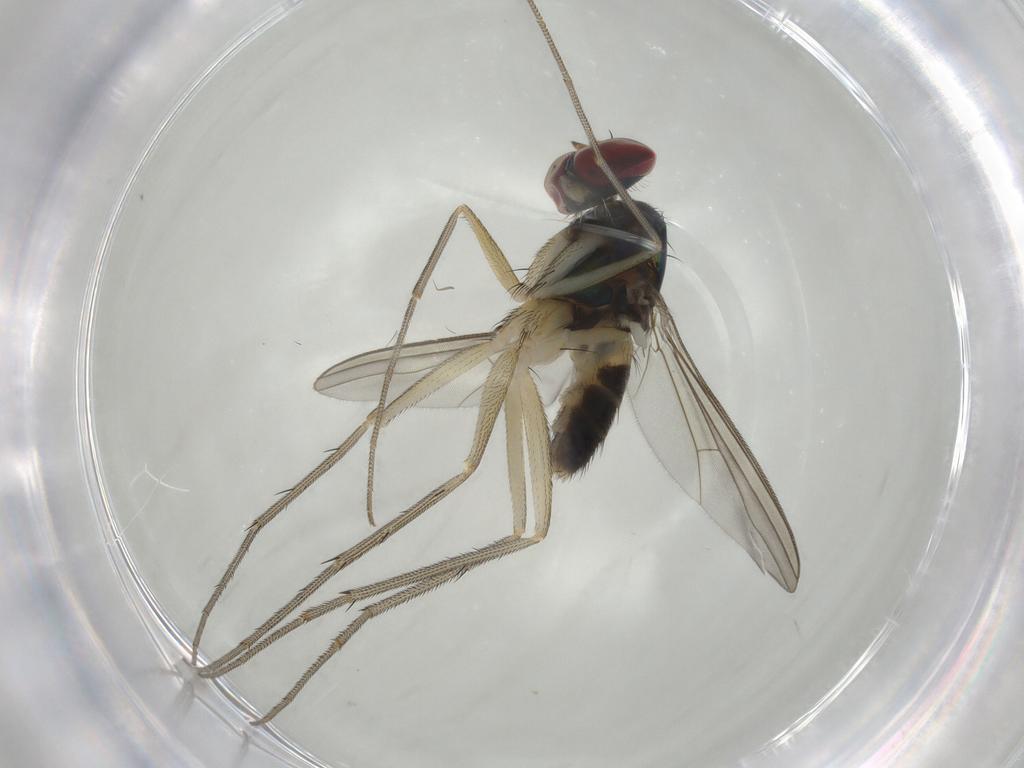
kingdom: Animalia
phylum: Arthropoda
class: Insecta
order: Diptera
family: Dolichopodidae
